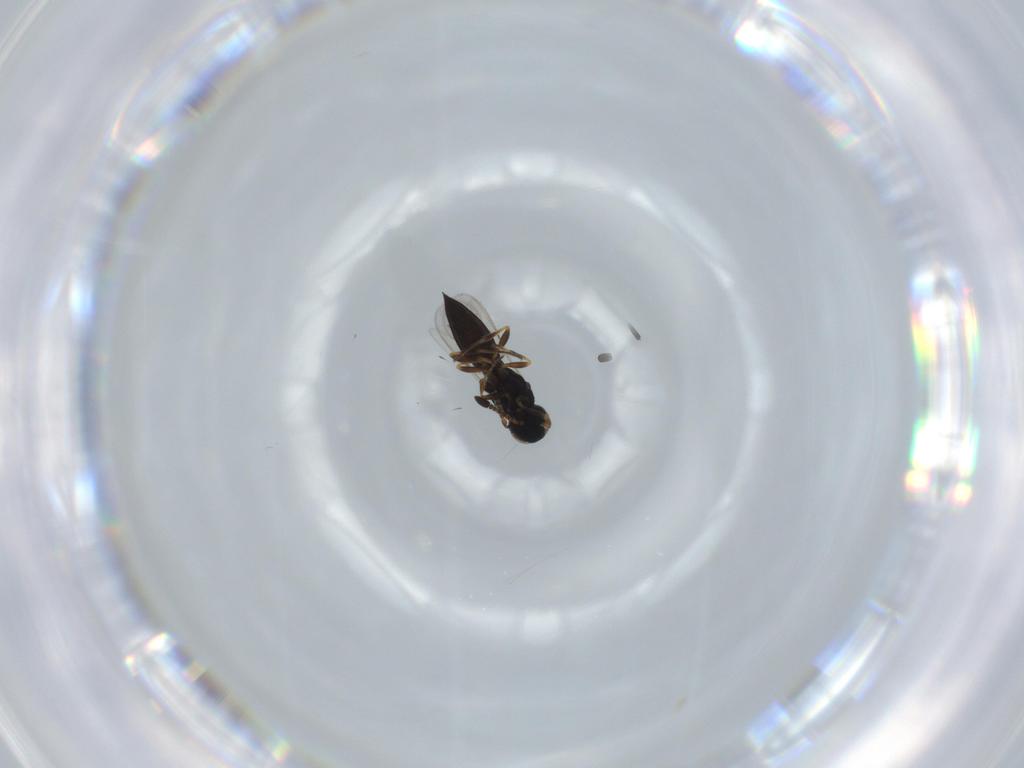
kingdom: Animalia
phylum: Arthropoda
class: Insecta
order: Hymenoptera
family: Scelionidae
